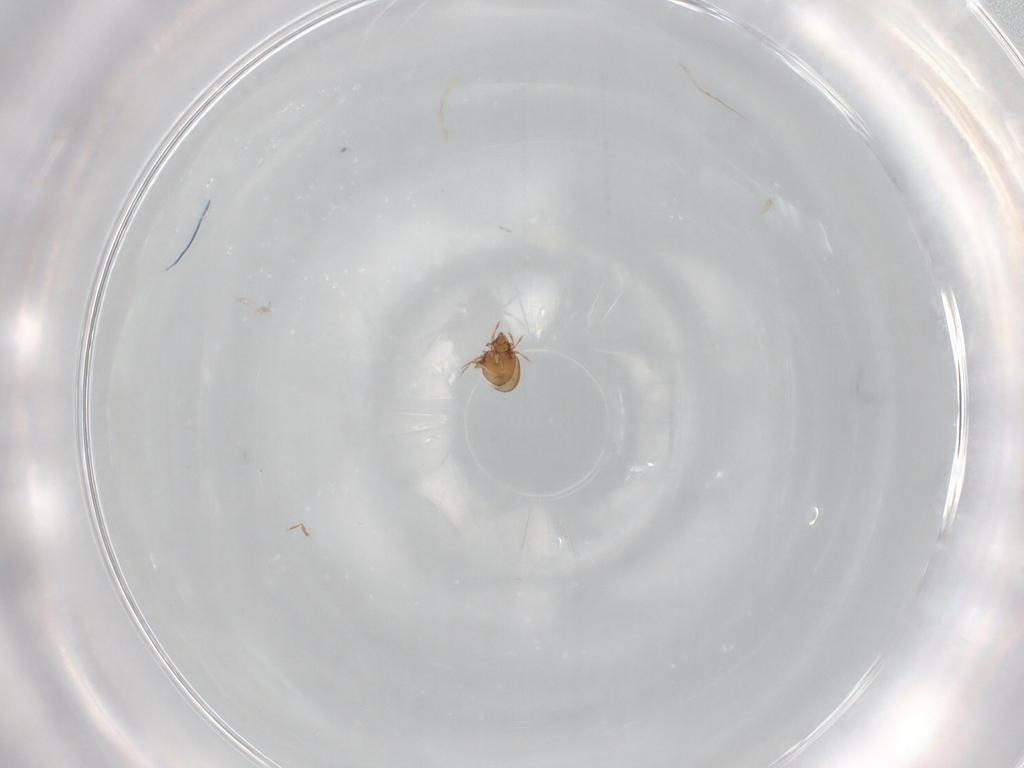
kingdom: Animalia
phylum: Arthropoda
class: Arachnida
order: Sarcoptiformes
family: Oribatulidae
